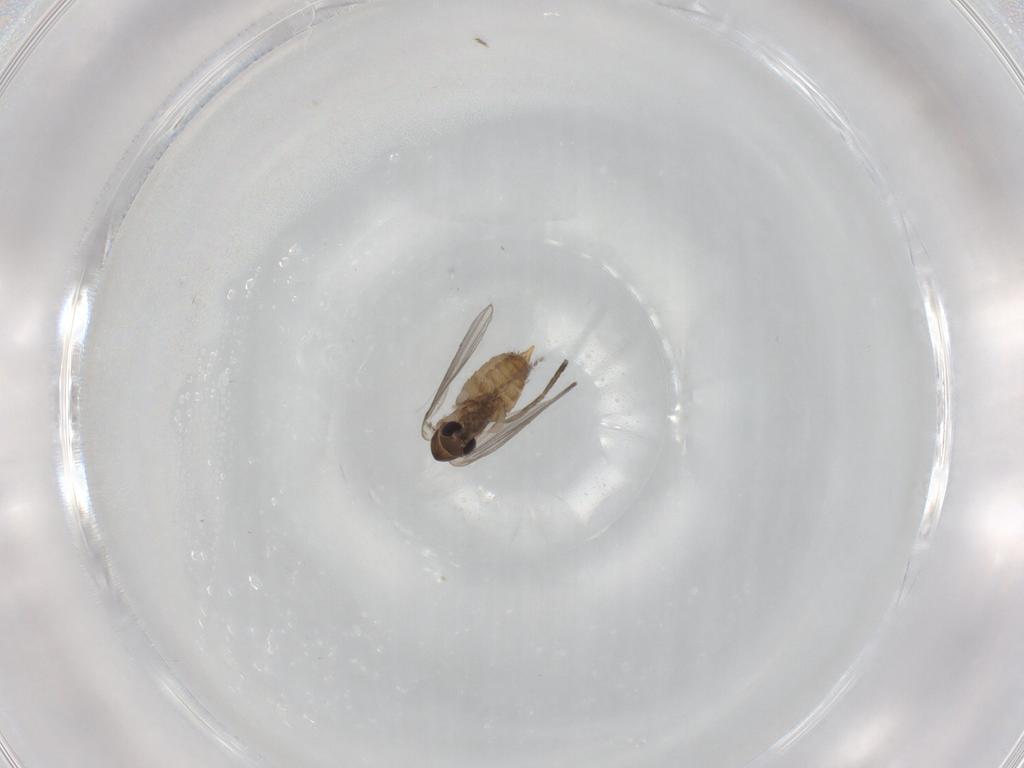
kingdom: Animalia
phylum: Arthropoda
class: Insecta
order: Diptera
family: Psychodidae
